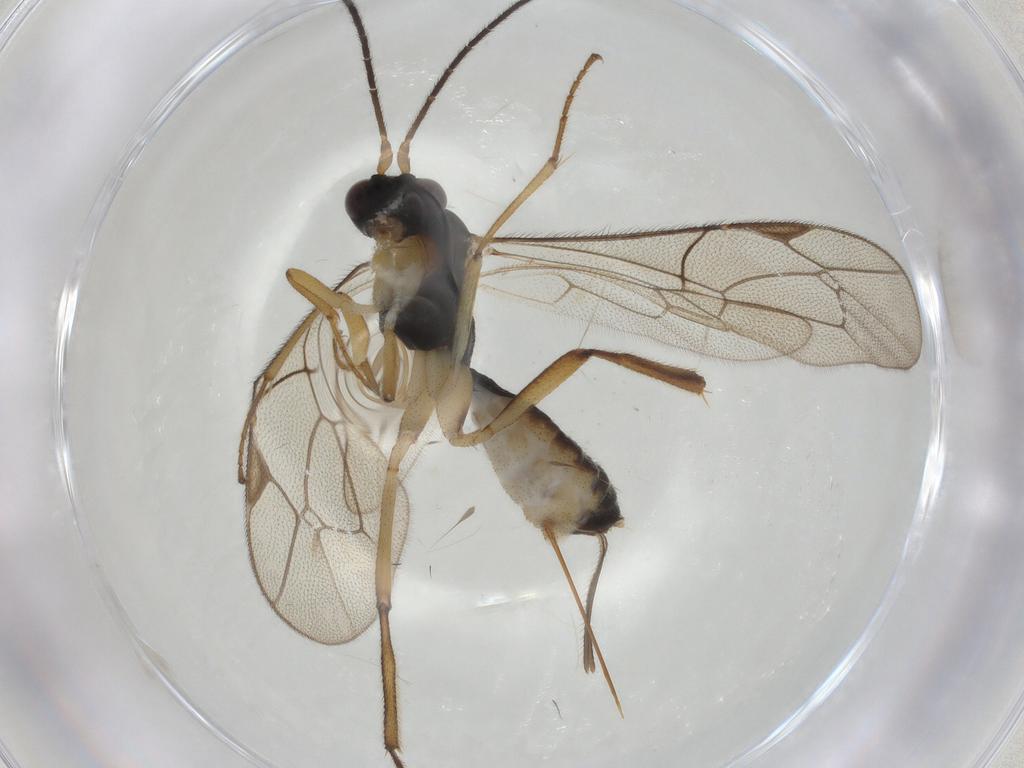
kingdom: Animalia
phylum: Arthropoda
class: Insecta
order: Hymenoptera
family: Ichneumonidae
